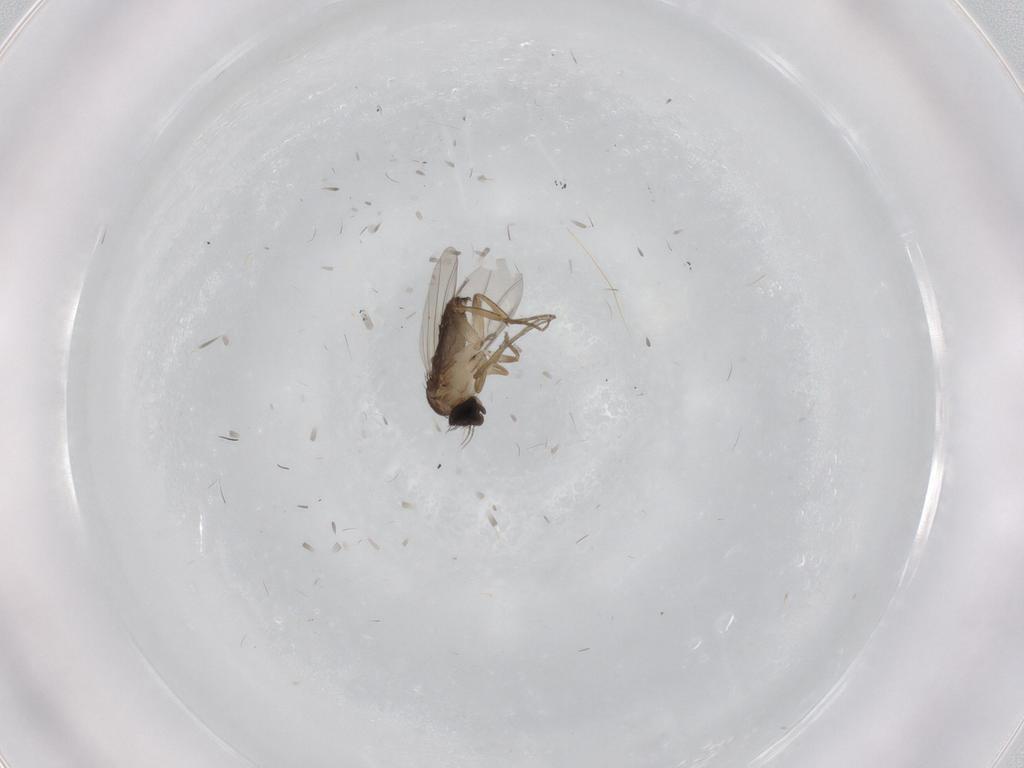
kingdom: Animalia
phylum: Arthropoda
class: Insecta
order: Diptera
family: Phoridae
